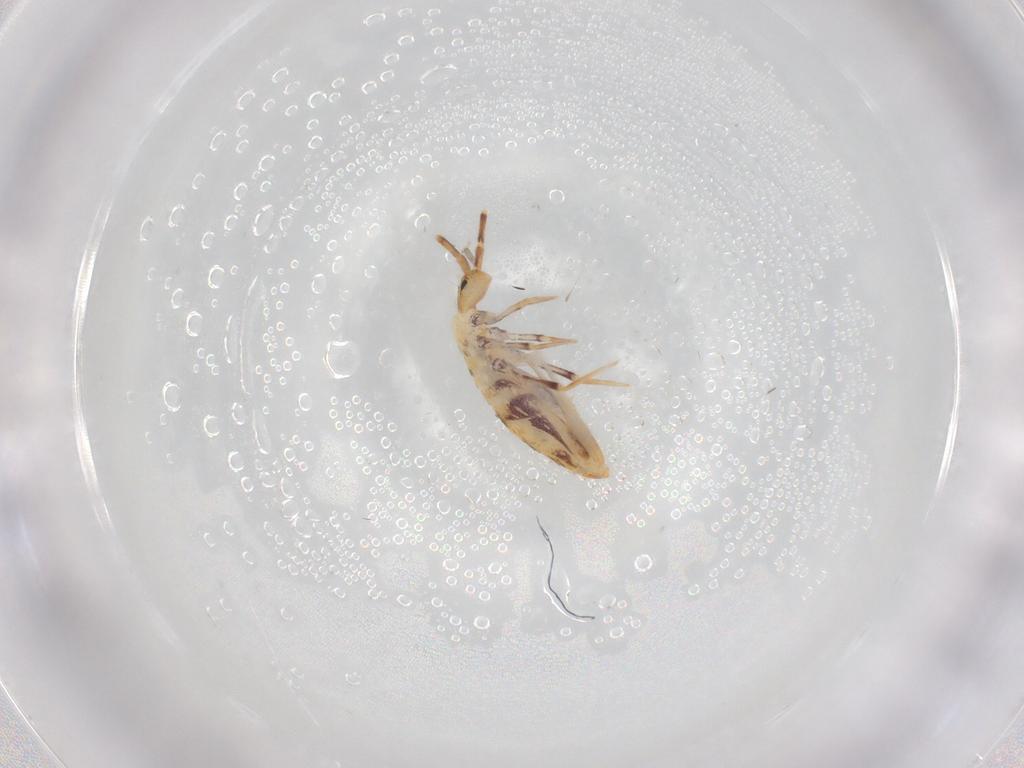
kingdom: Animalia
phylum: Arthropoda
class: Collembola
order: Poduromorpha
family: Hypogastruridae
